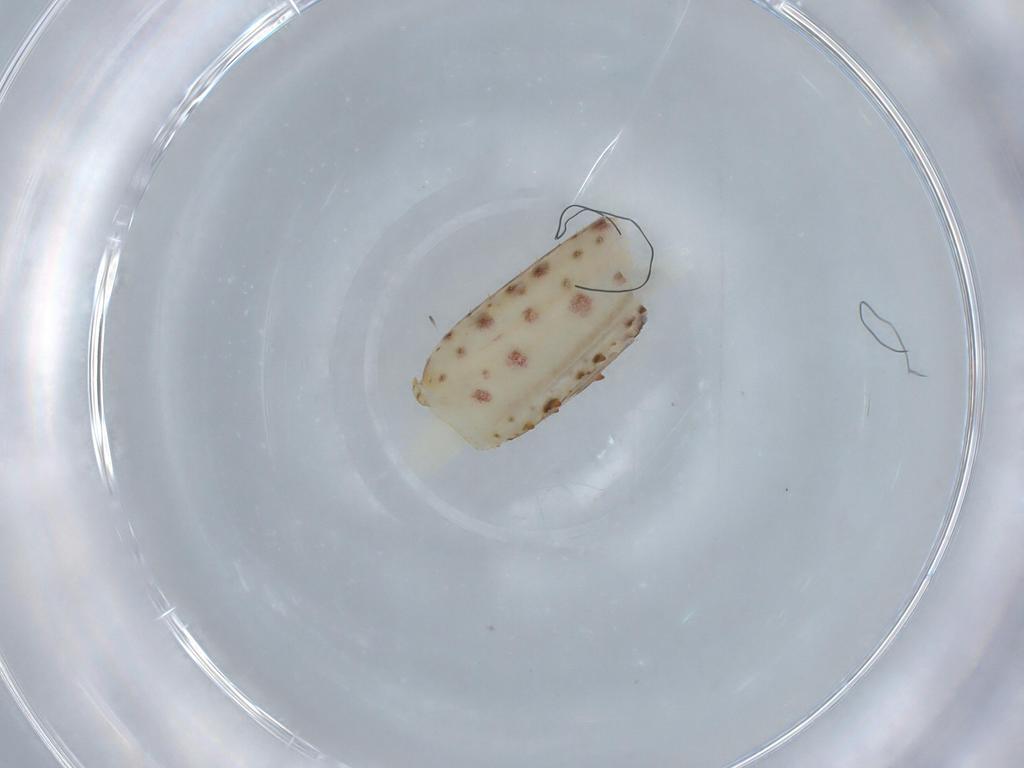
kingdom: Animalia
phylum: Arthropoda
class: Insecta
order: Orthoptera
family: Tettigoniidae
